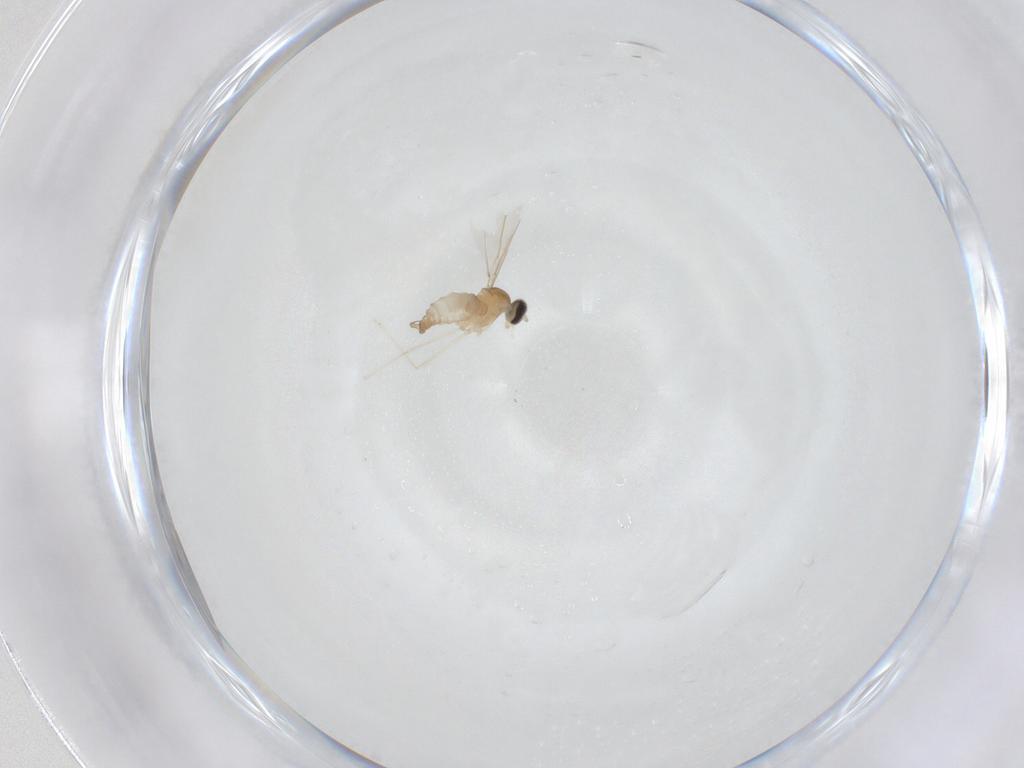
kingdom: Animalia
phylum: Arthropoda
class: Insecta
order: Diptera
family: Cecidomyiidae
